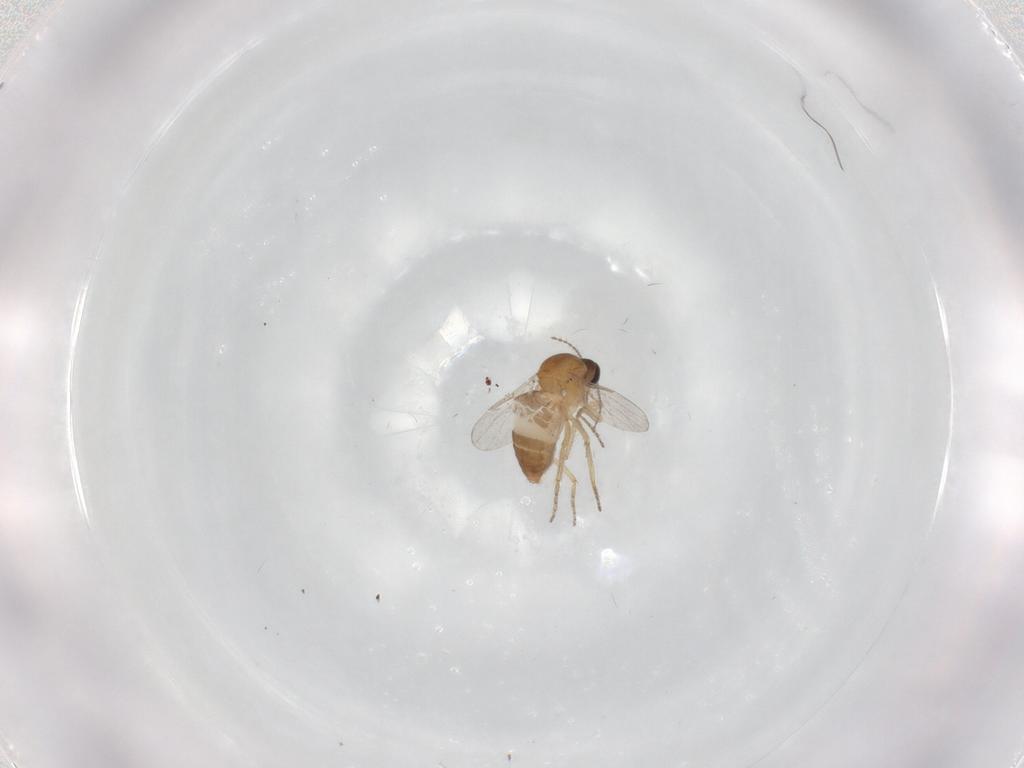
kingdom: Animalia
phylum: Arthropoda
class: Insecta
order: Diptera
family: Ceratopogonidae
